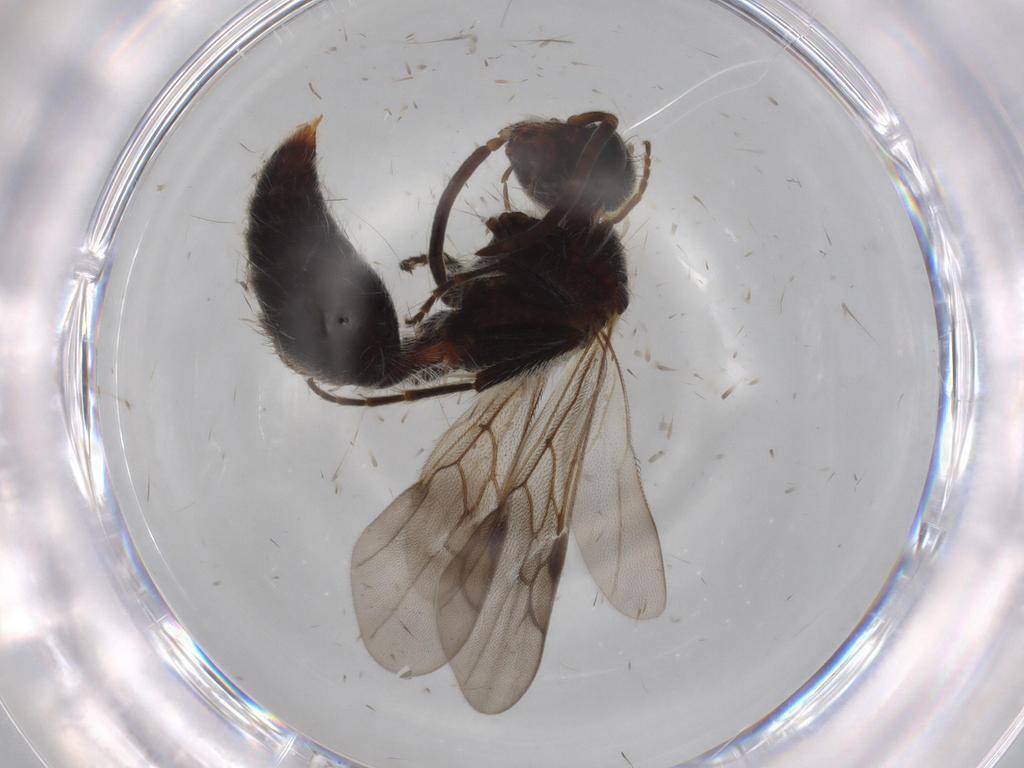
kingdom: Animalia
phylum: Arthropoda
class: Insecta
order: Hymenoptera
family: Mutillidae
